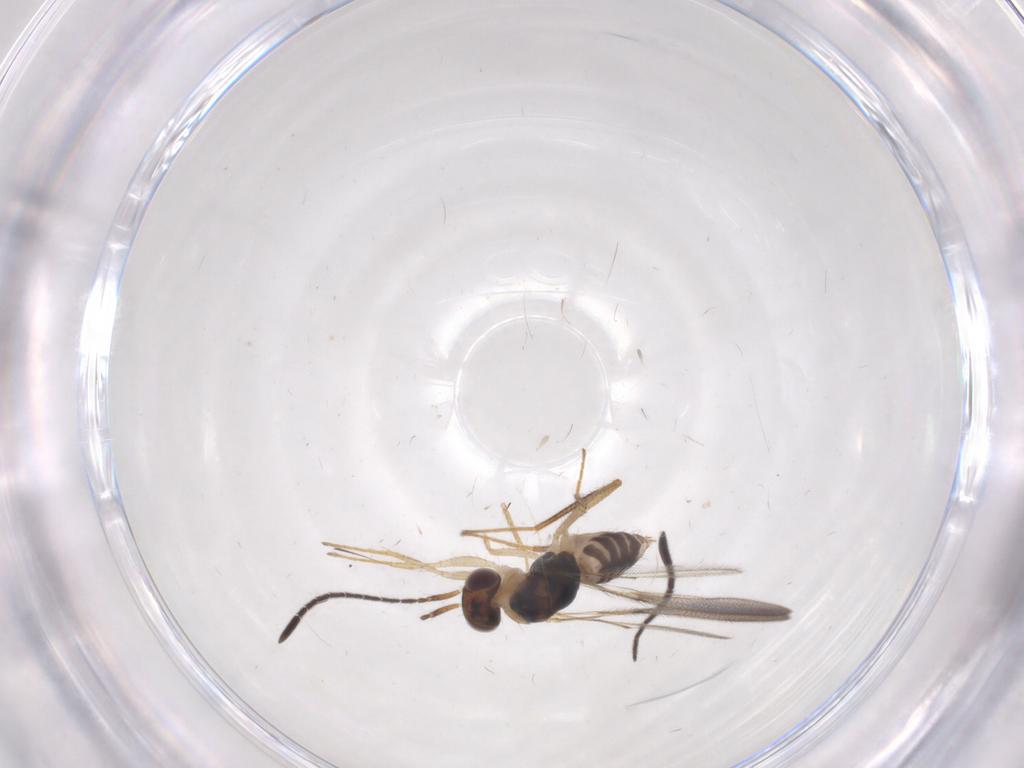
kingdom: Animalia
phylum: Arthropoda
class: Insecta
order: Hymenoptera
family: Mymaridae
